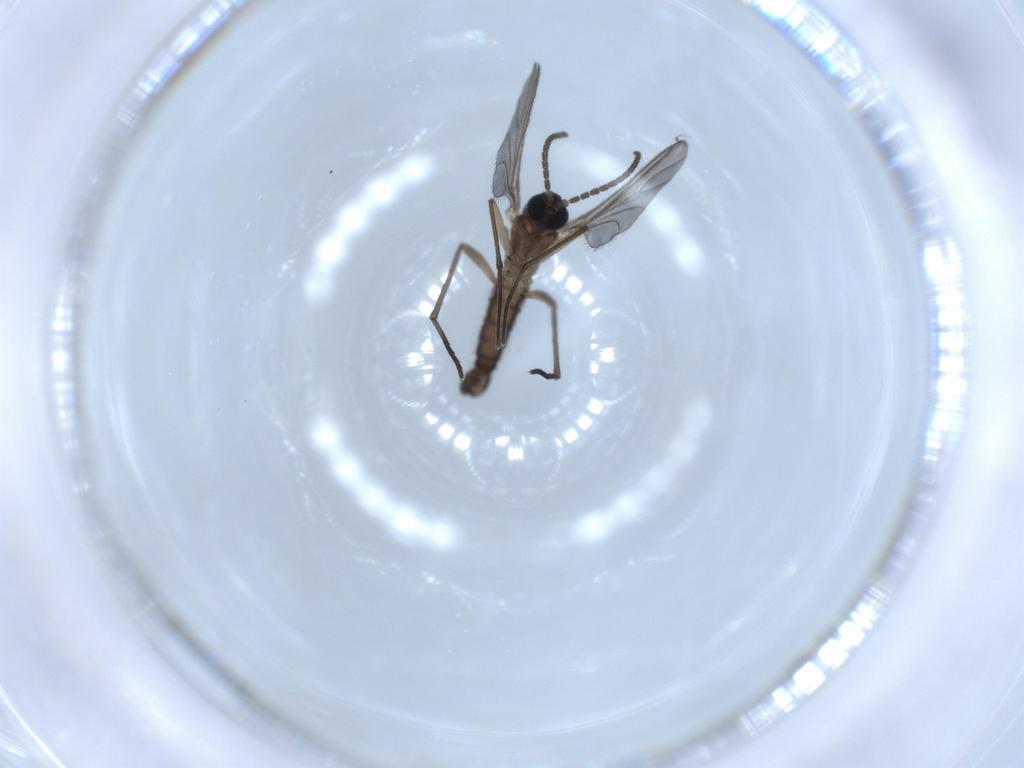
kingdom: Animalia
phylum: Arthropoda
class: Insecta
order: Diptera
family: Sciaridae
